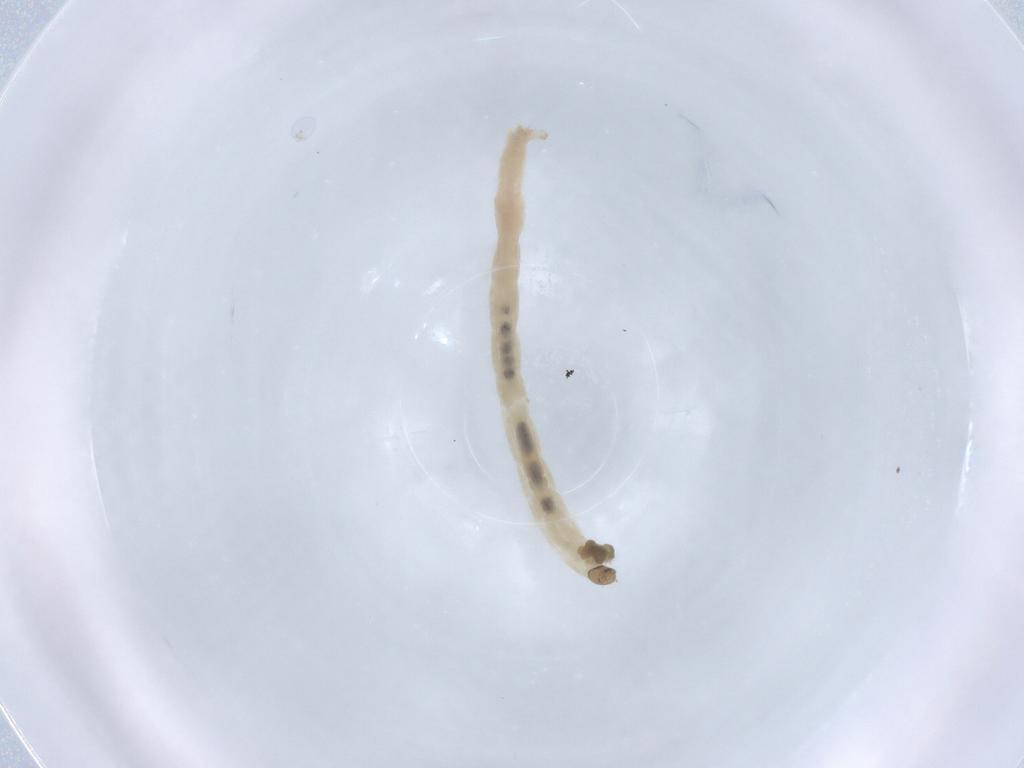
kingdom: Animalia
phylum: Arthropoda
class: Insecta
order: Diptera
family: Chironomidae
